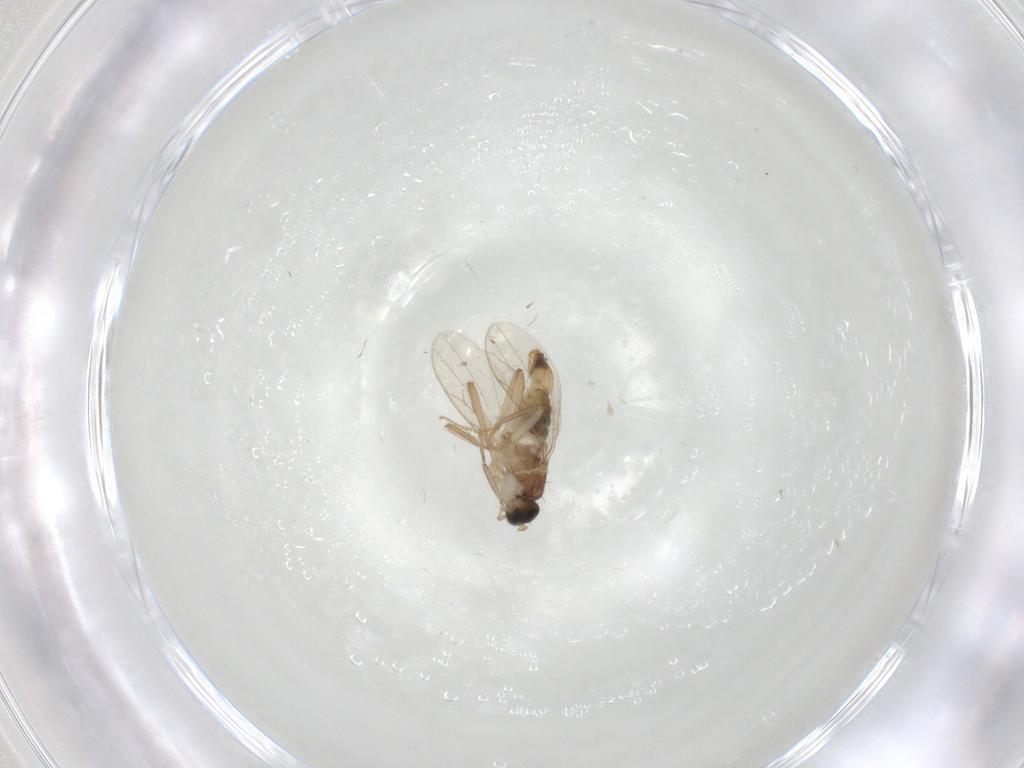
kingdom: Animalia
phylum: Arthropoda
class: Insecta
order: Diptera
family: Hybotidae
